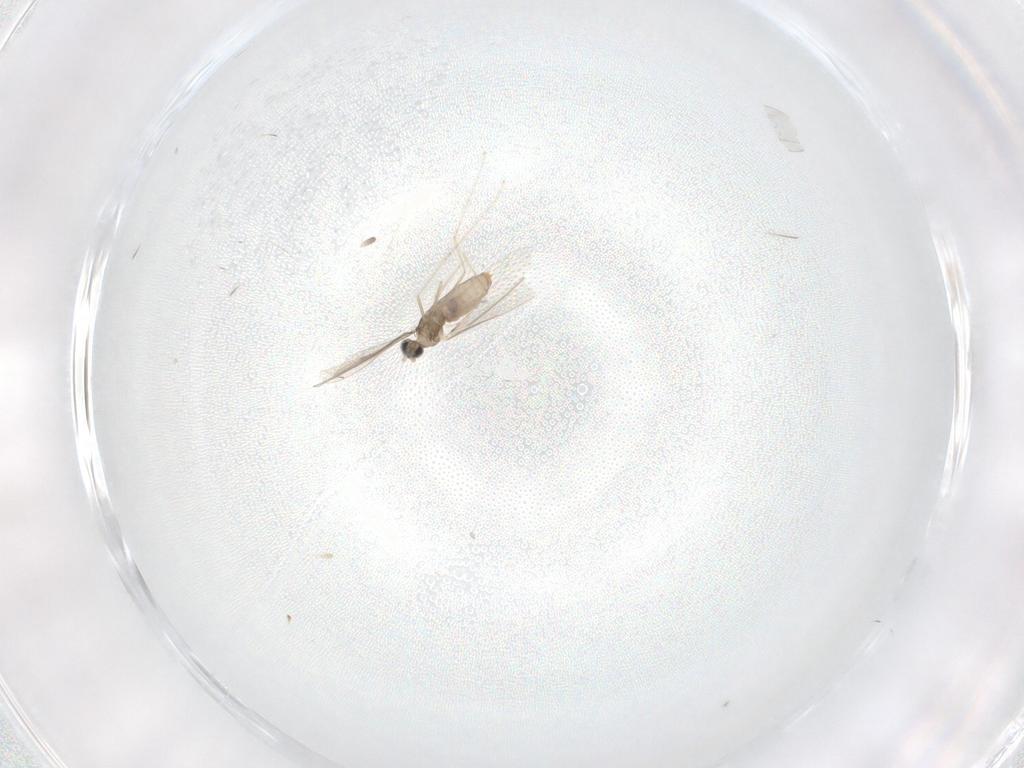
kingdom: Animalia
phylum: Arthropoda
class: Insecta
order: Diptera
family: Cecidomyiidae
